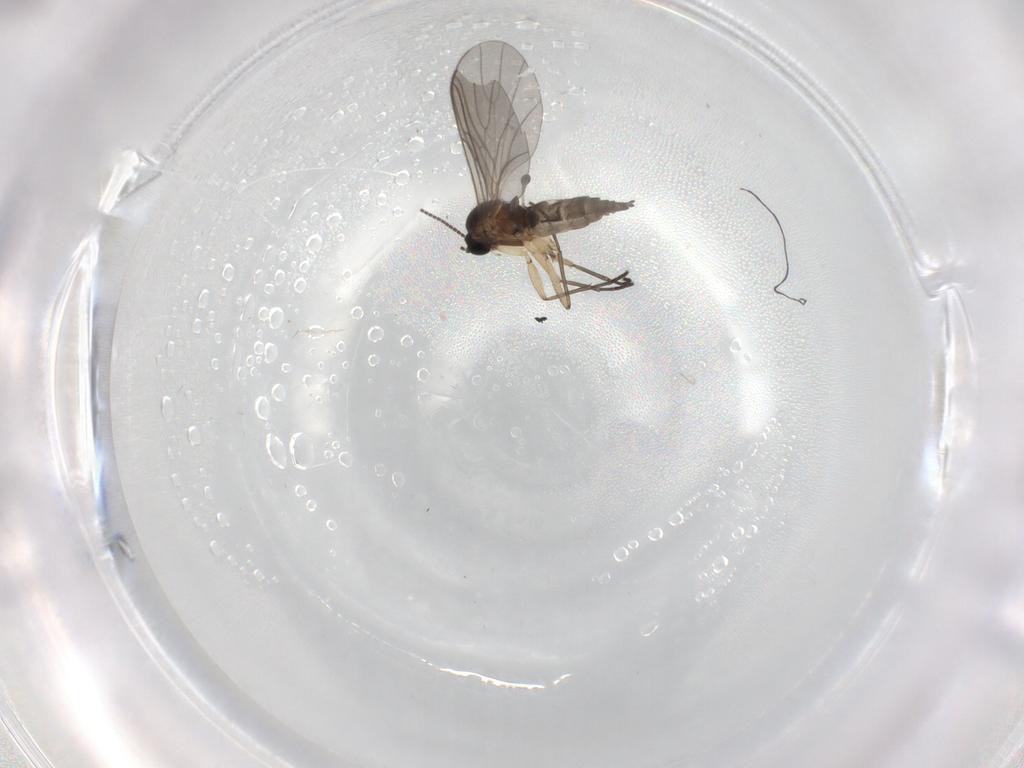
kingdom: Animalia
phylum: Arthropoda
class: Insecta
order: Diptera
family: Sciaridae
